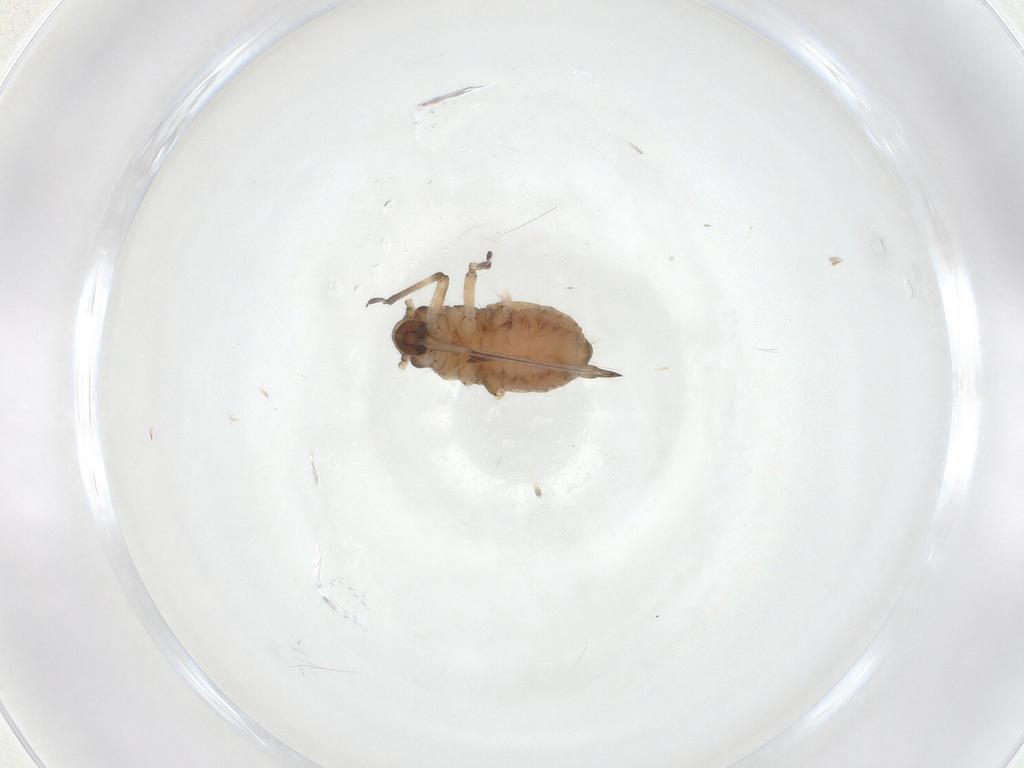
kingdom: Animalia
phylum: Arthropoda
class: Insecta
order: Hemiptera
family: Aphididae
